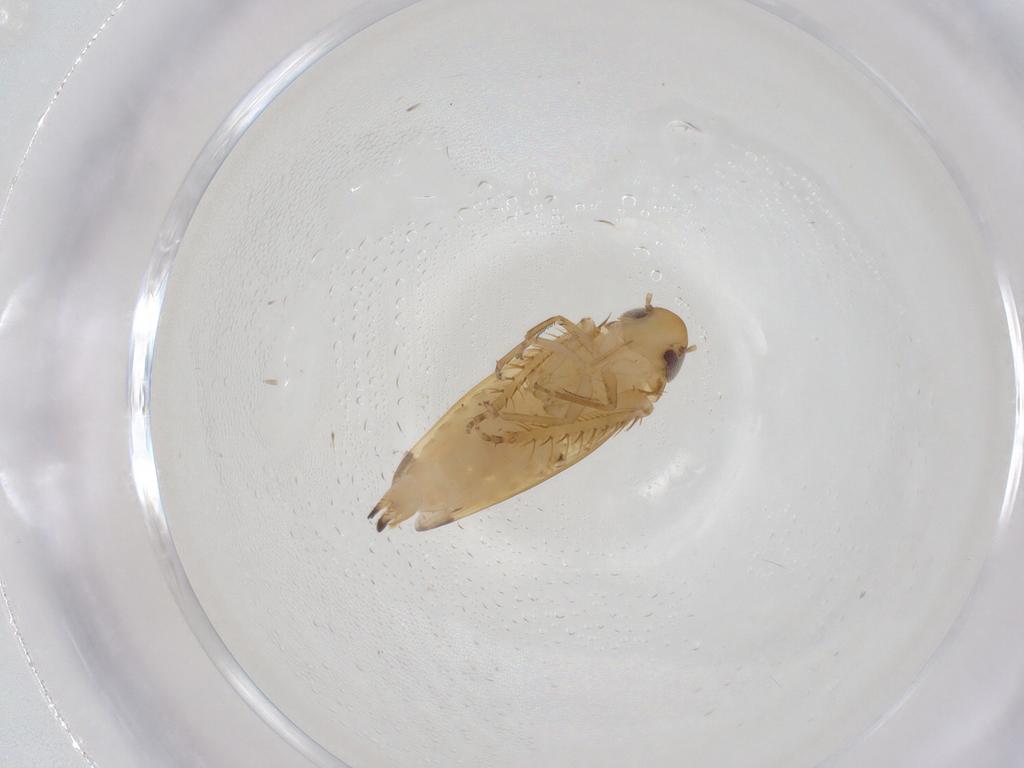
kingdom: Animalia
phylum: Arthropoda
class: Insecta
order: Hemiptera
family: Cicadellidae
